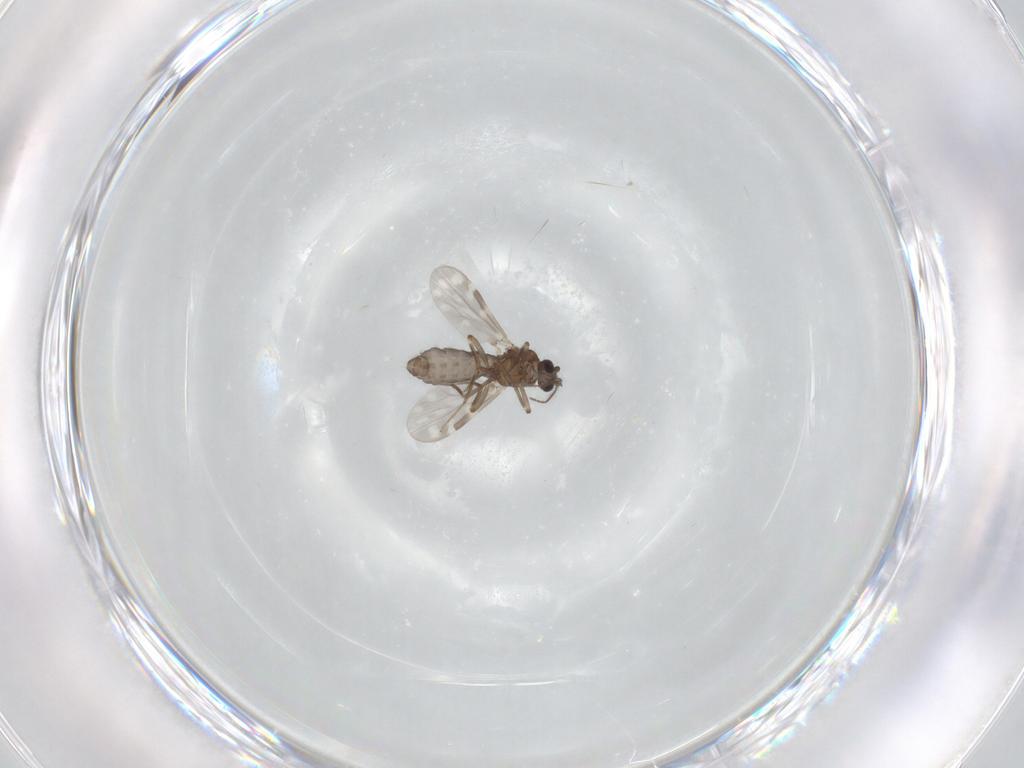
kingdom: Animalia
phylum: Arthropoda
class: Insecta
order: Diptera
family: Chironomidae
